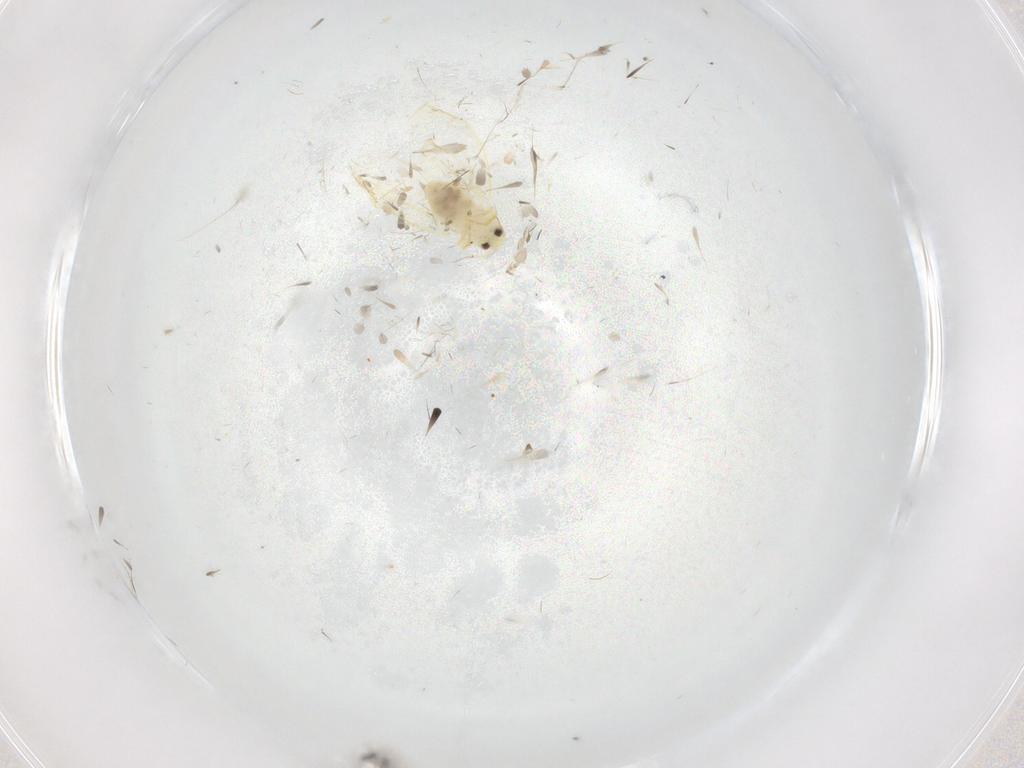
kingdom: Animalia
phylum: Arthropoda
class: Insecta
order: Hemiptera
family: Aleyrodidae
